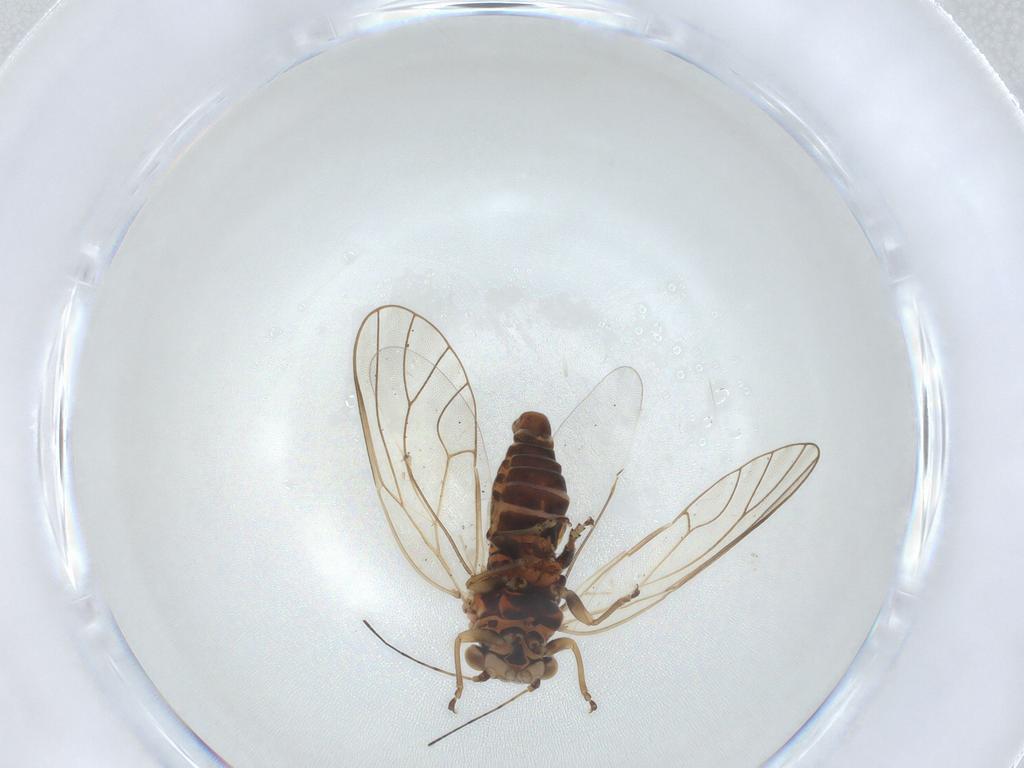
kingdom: Animalia
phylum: Arthropoda
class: Insecta
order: Hemiptera
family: Psyllidae
